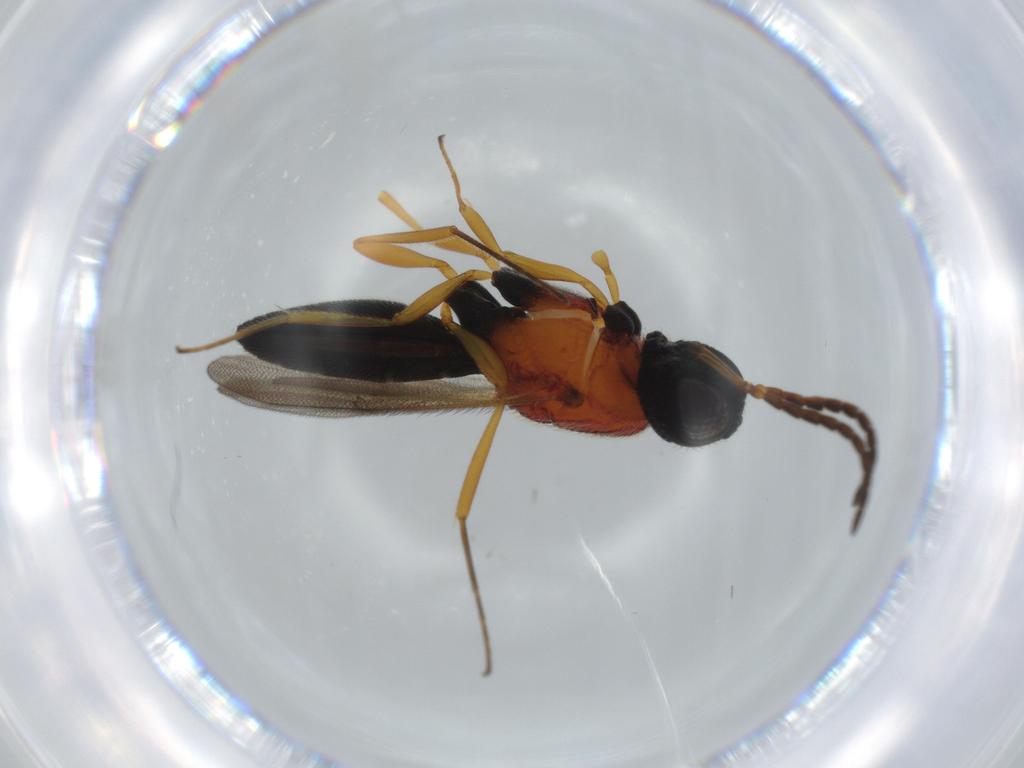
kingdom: Animalia
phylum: Arthropoda
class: Insecta
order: Hymenoptera
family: Scelionidae
